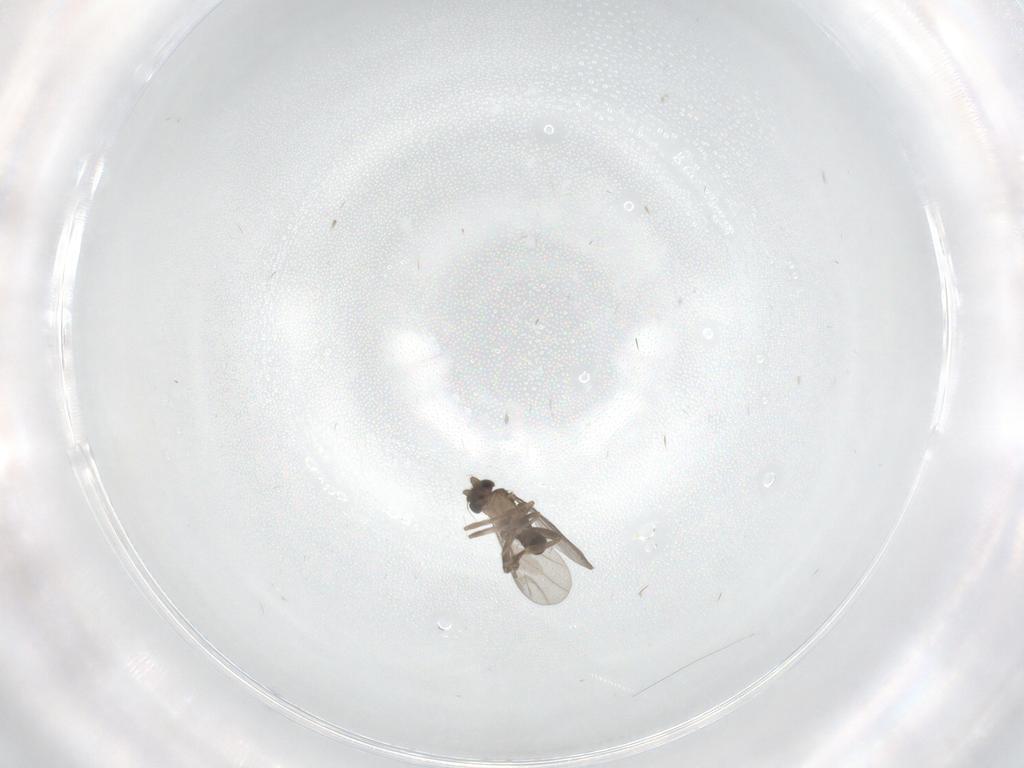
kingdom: Animalia
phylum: Arthropoda
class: Insecta
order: Diptera
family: Cecidomyiidae
